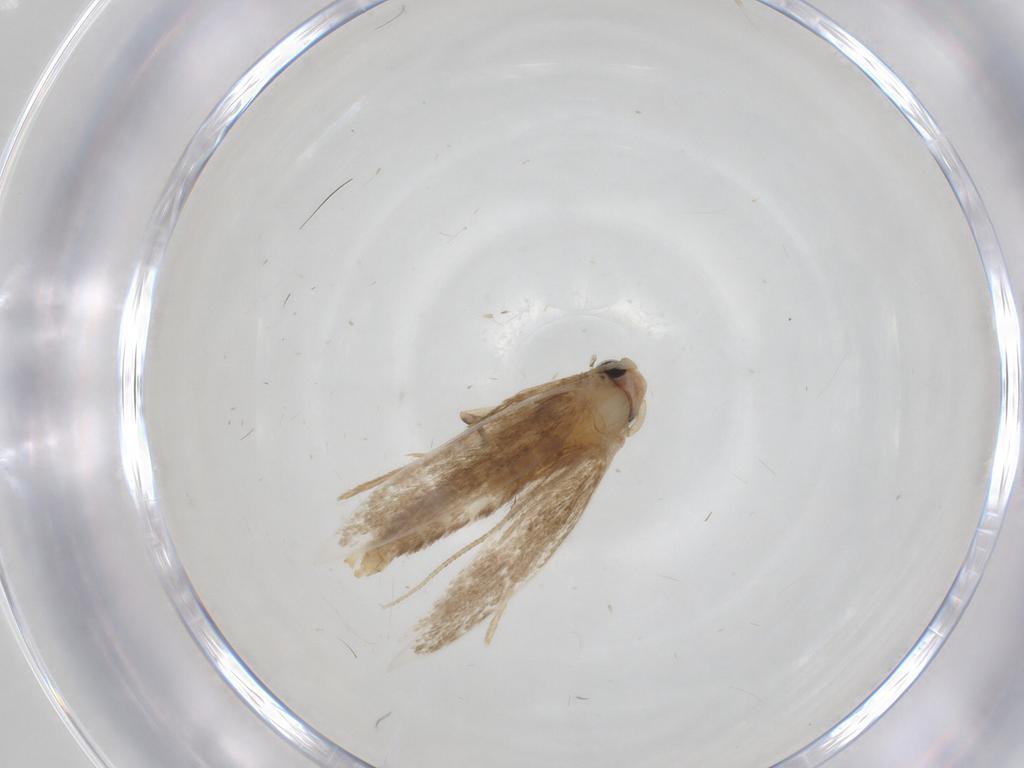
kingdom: Animalia
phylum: Arthropoda
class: Insecta
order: Lepidoptera
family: Tineidae
